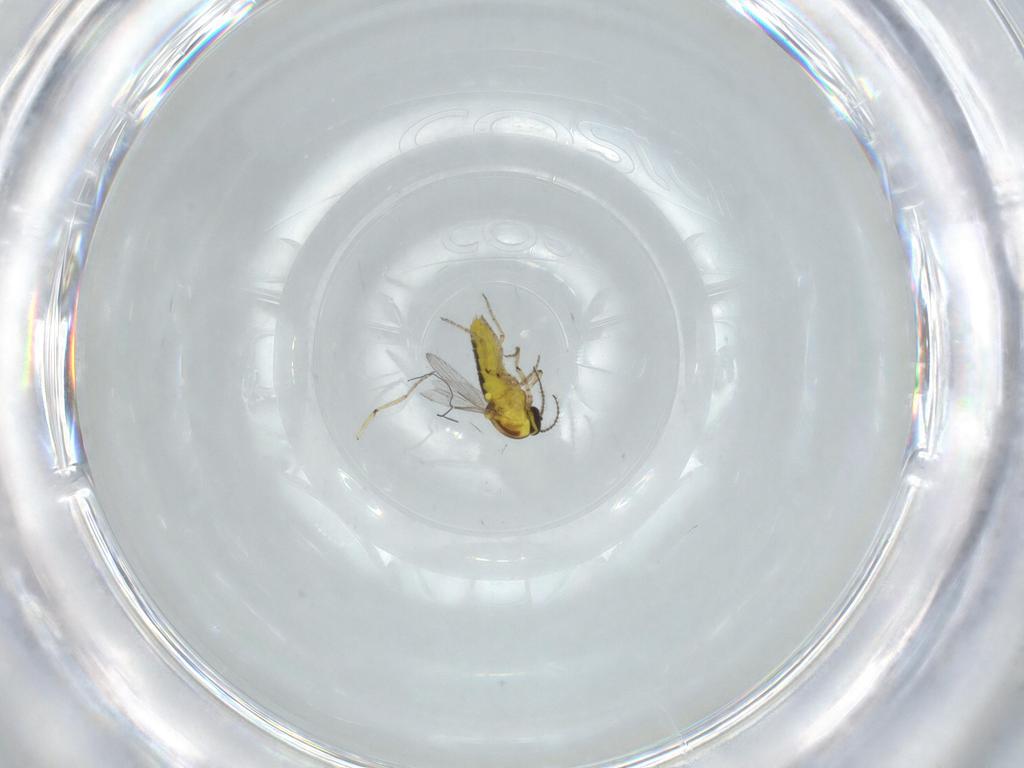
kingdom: Animalia
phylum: Arthropoda
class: Insecta
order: Diptera
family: Ceratopogonidae
